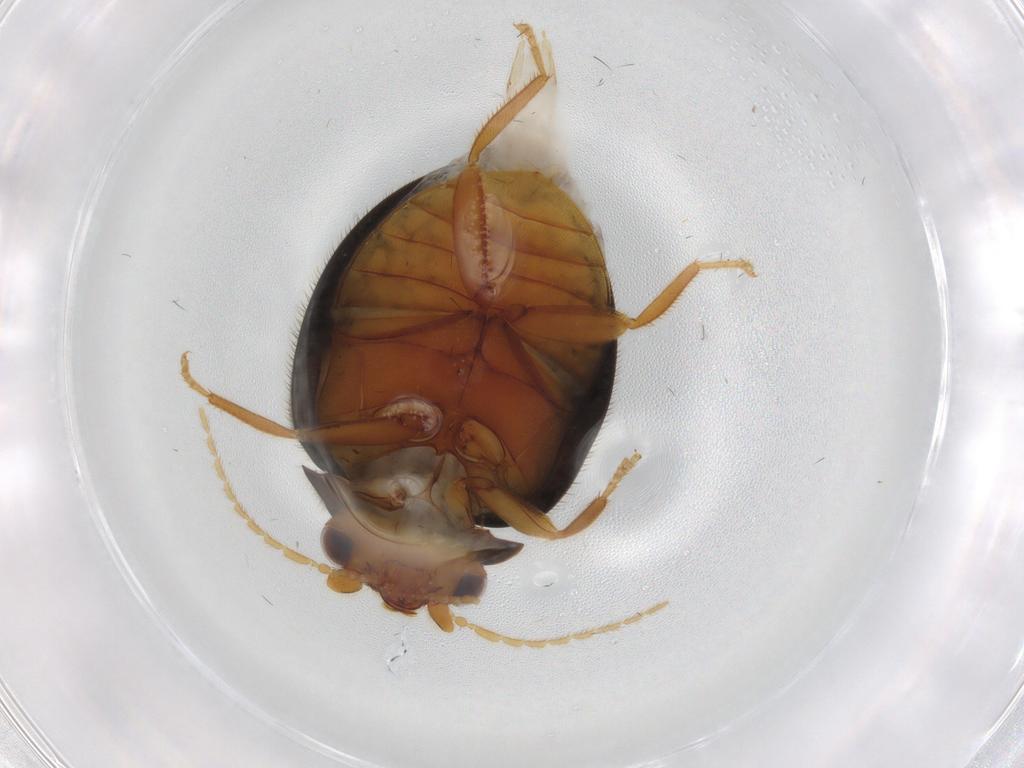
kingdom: Animalia
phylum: Arthropoda
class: Insecta
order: Coleoptera
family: Scirtidae
